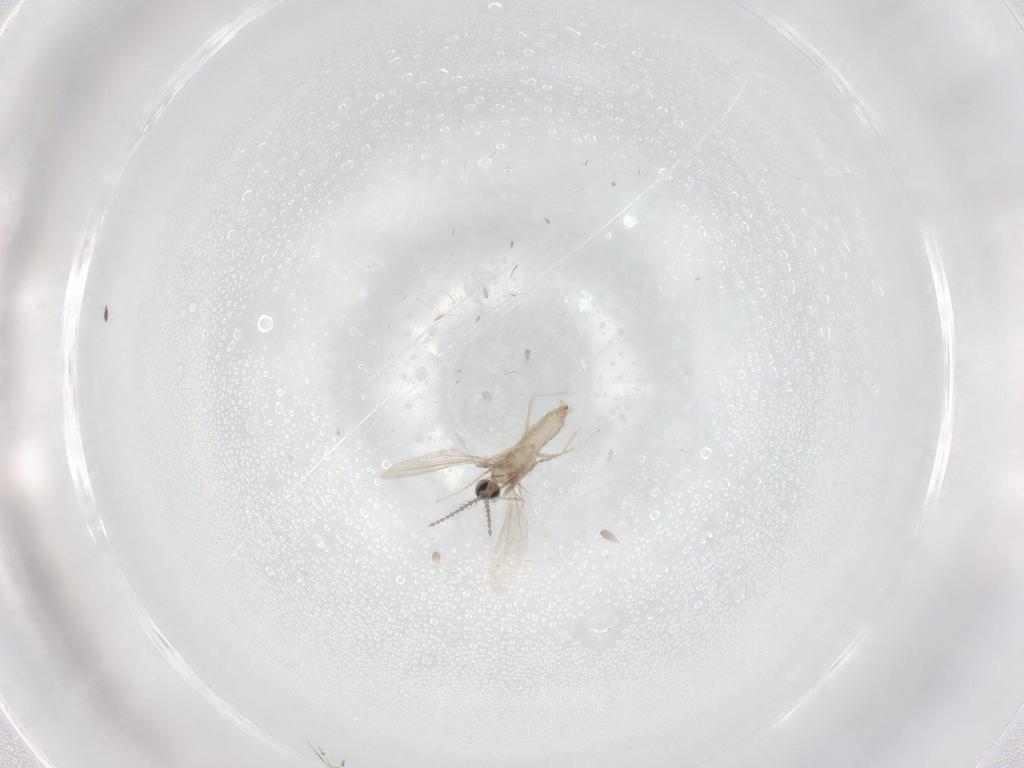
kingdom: Animalia
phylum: Arthropoda
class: Insecta
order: Diptera
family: Cecidomyiidae
